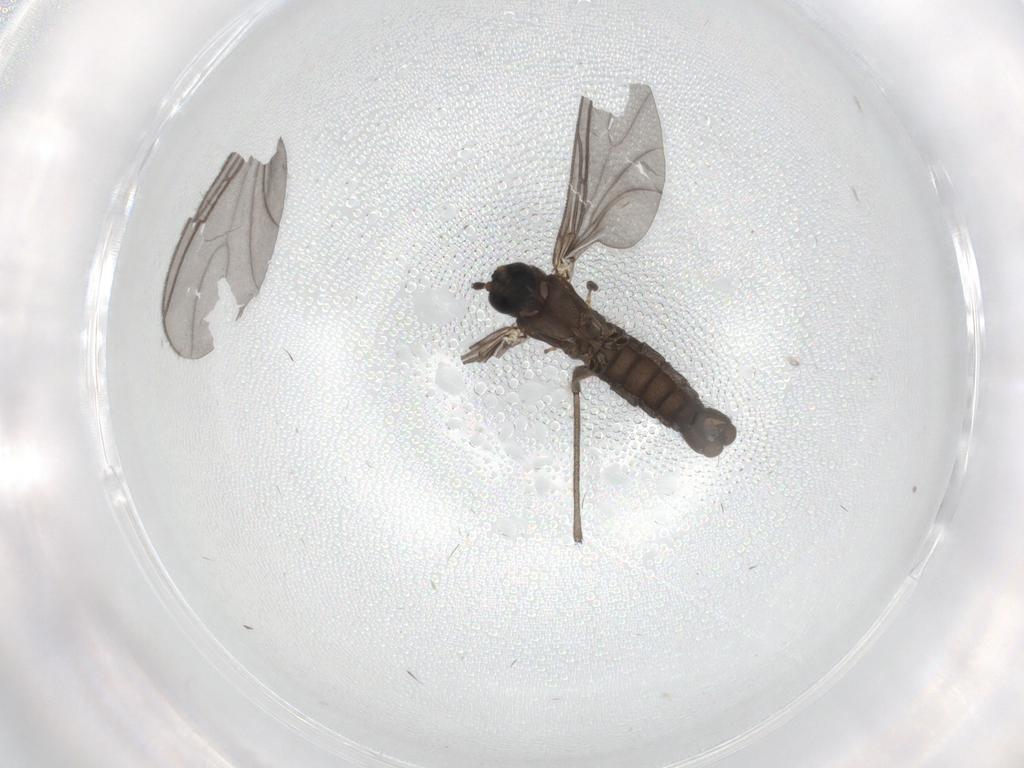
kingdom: Animalia
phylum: Arthropoda
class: Insecta
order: Diptera
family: Sciaridae
